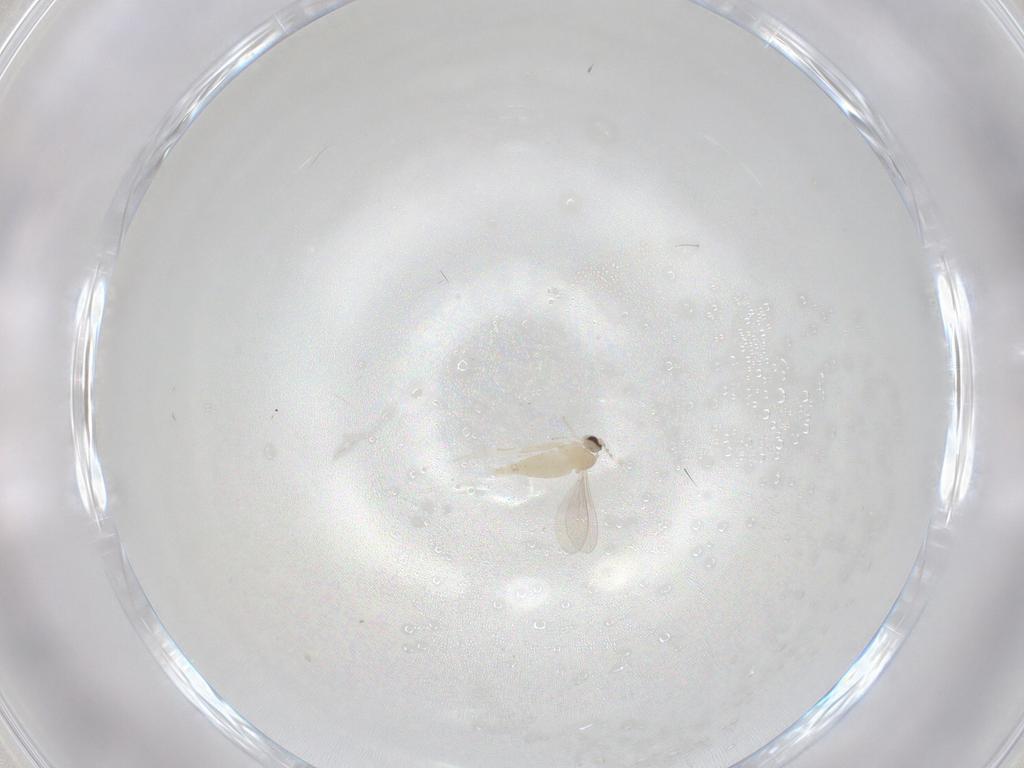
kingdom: Animalia
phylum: Arthropoda
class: Insecta
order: Diptera
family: Cecidomyiidae
